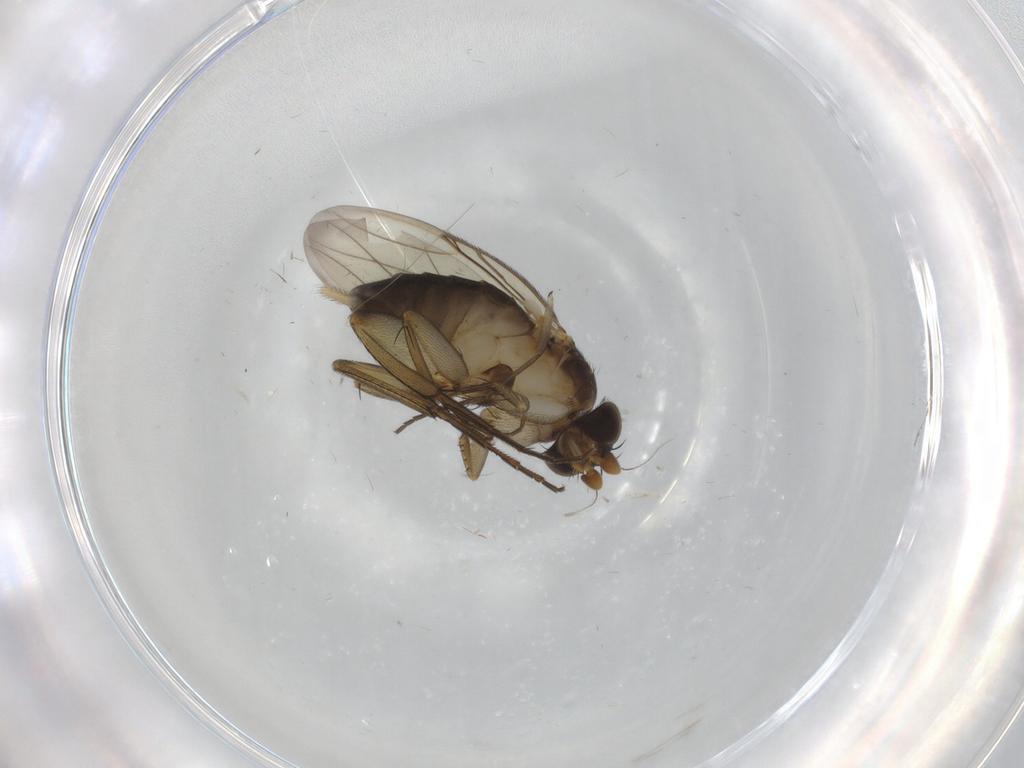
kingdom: Animalia
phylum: Arthropoda
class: Insecta
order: Diptera
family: Phoridae
